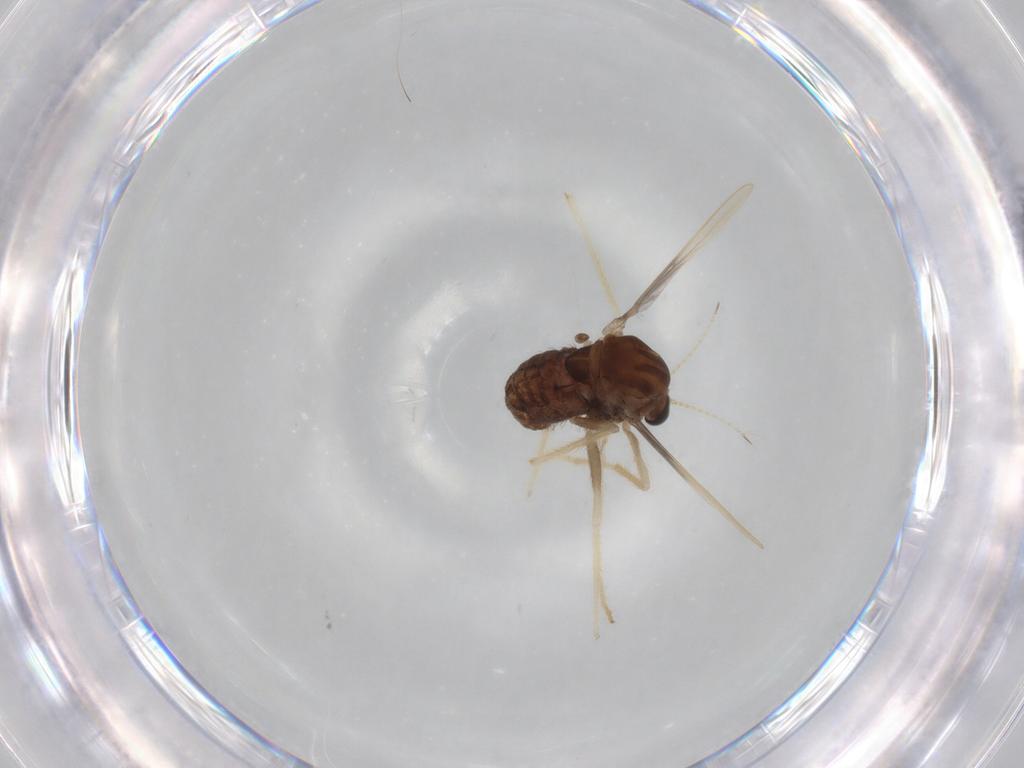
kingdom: Animalia
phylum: Arthropoda
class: Insecta
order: Diptera
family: Chironomidae
